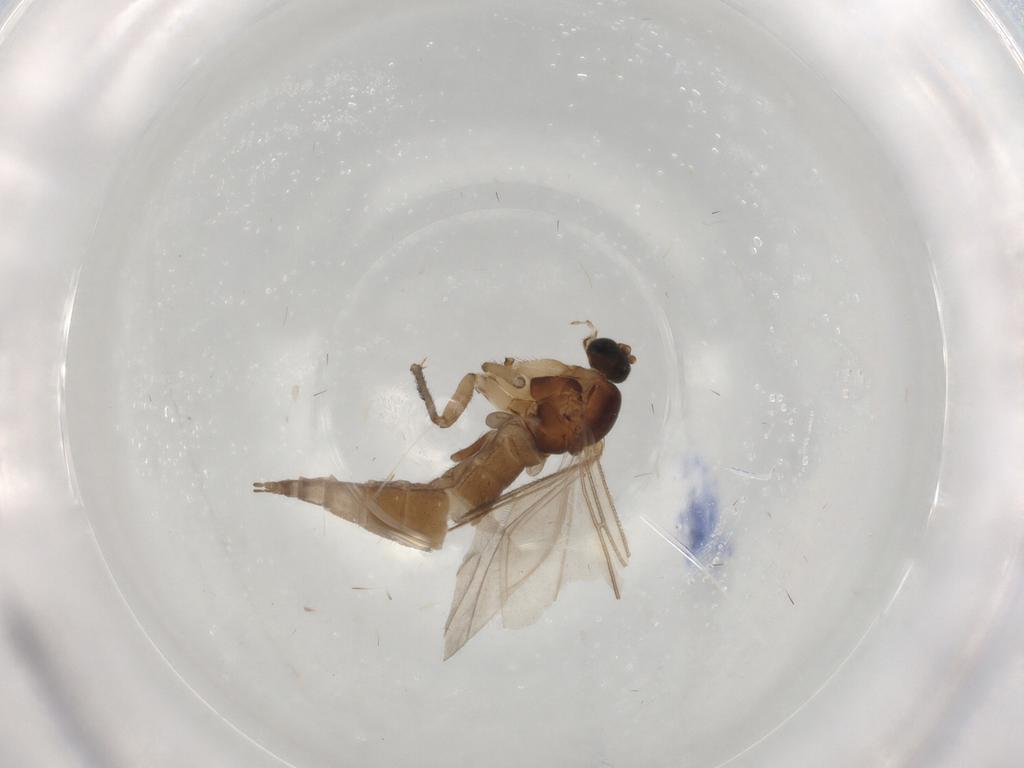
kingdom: Animalia
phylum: Arthropoda
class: Insecta
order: Diptera
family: Sciaridae
